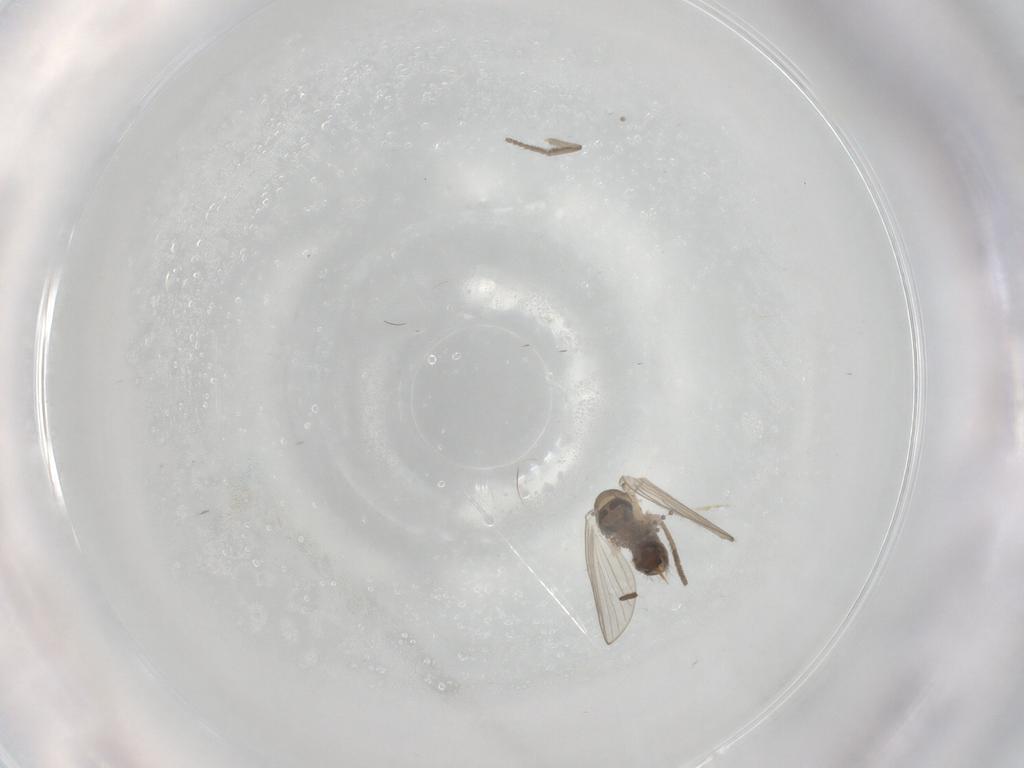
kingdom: Animalia
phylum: Arthropoda
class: Insecta
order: Diptera
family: Psychodidae
